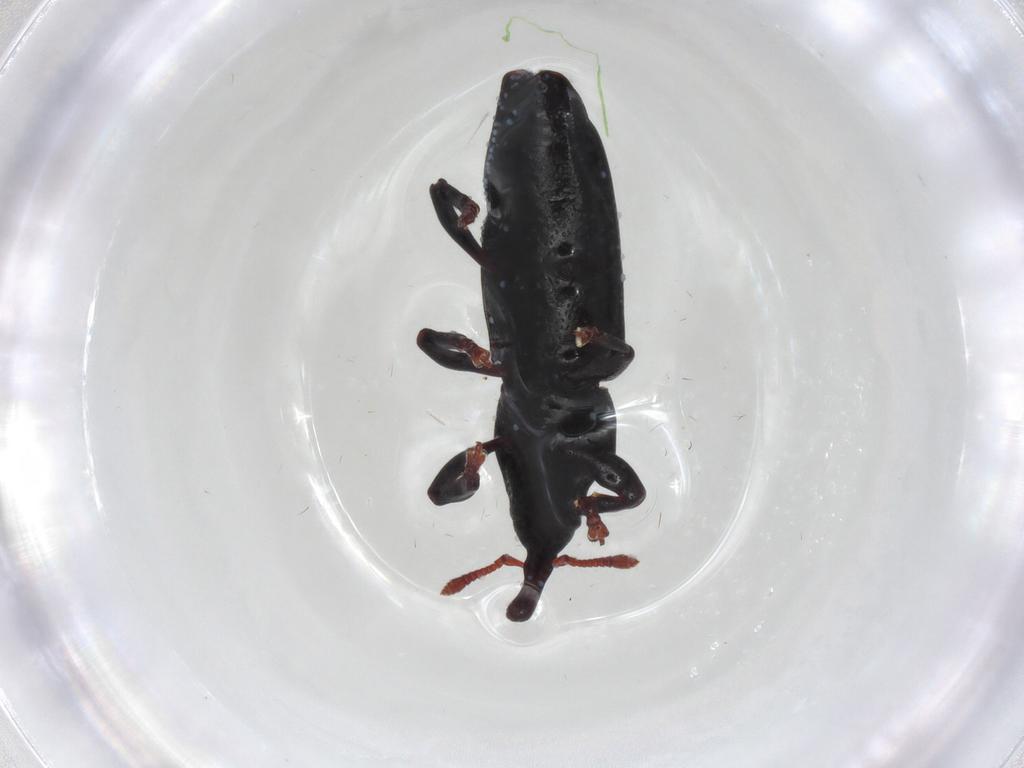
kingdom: Animalia
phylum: Arthropoda
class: Insecta
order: Coleoptera
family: Curculionidae
